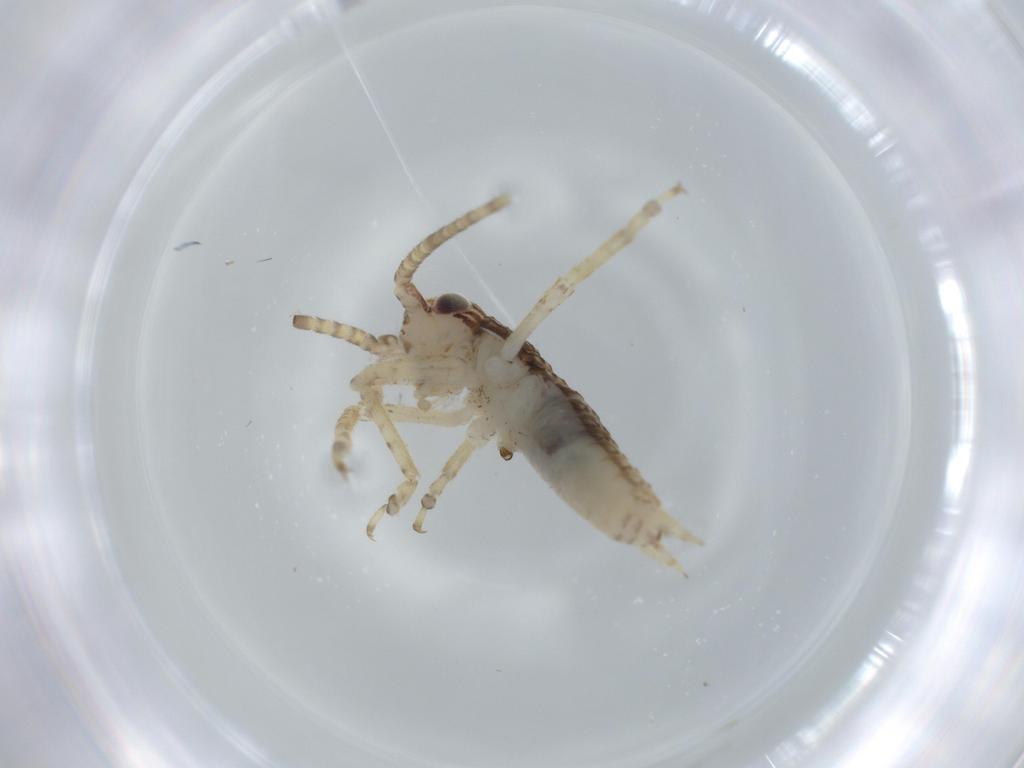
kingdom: Animalia
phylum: Arthropoda
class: Insecta
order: Orthoptera
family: Gryllidae
